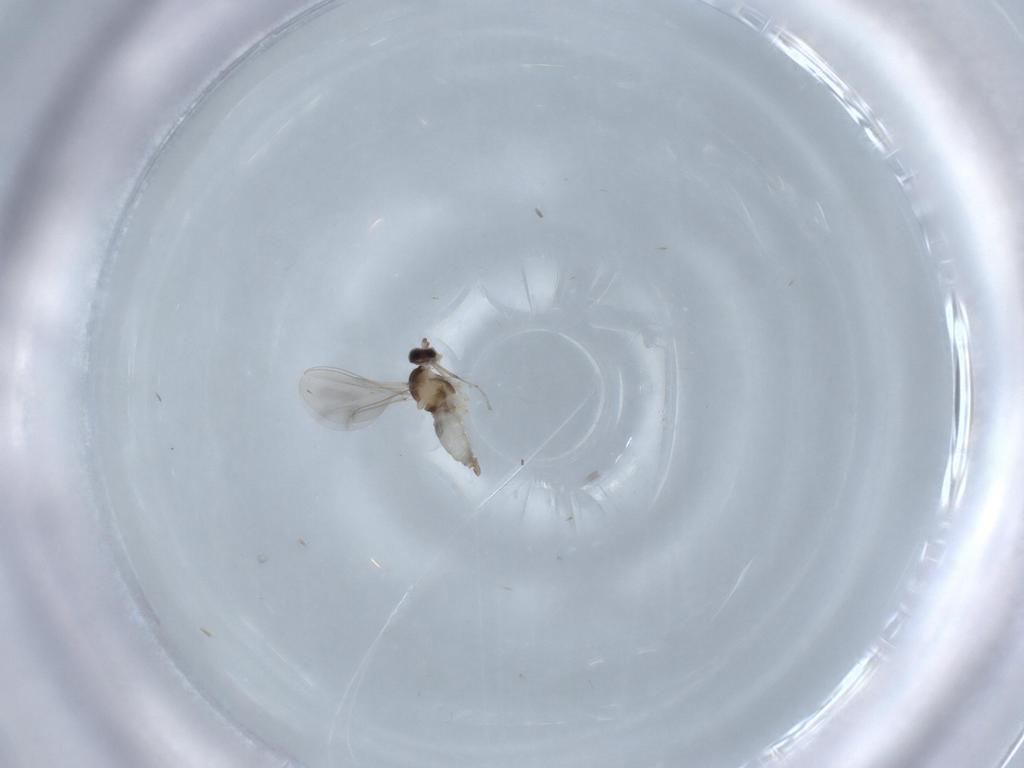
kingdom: Animalia
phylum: Arthropoda
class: Insecta
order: Diptera
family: Cecidomyiidae
